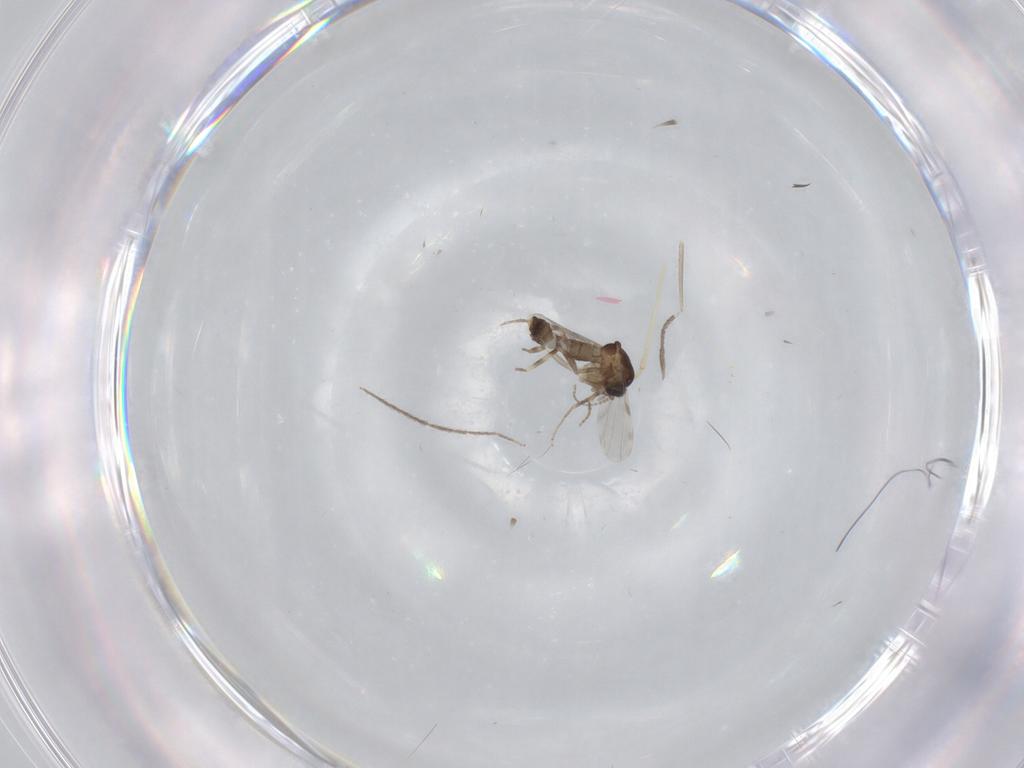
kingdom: Animalia
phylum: Arthropoda
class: Insecta
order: Diptera
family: Ceratopogonidae
